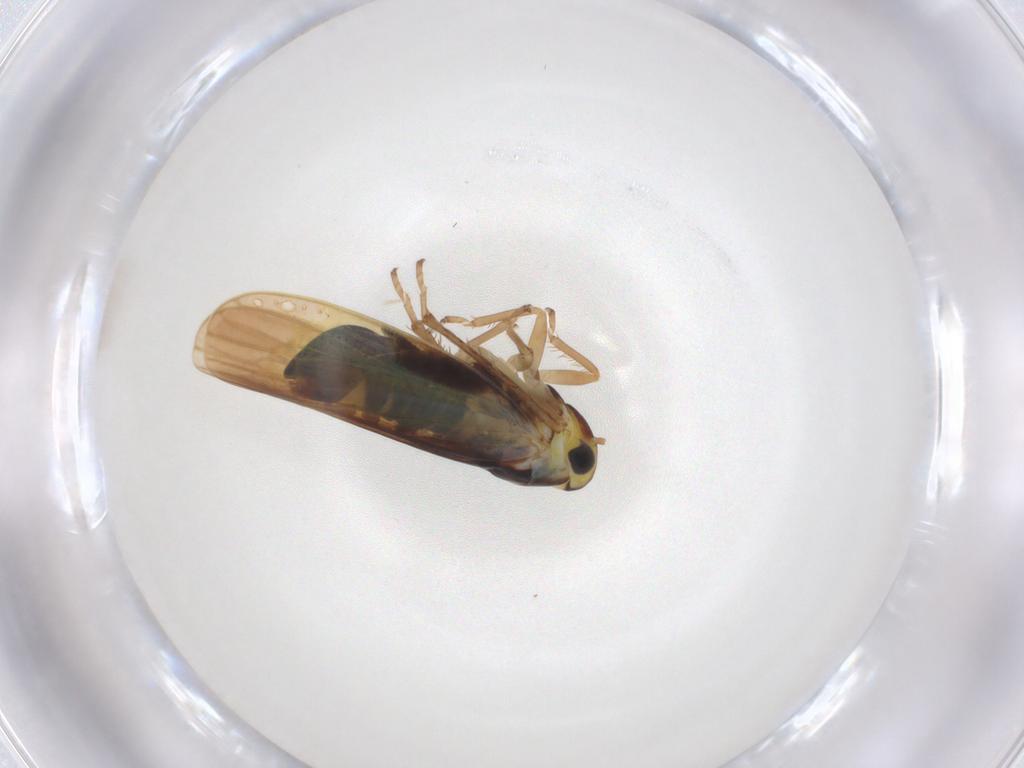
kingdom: Animalia
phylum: Arthropoda
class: Insecta
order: Hemiptera
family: Cicadellidae
